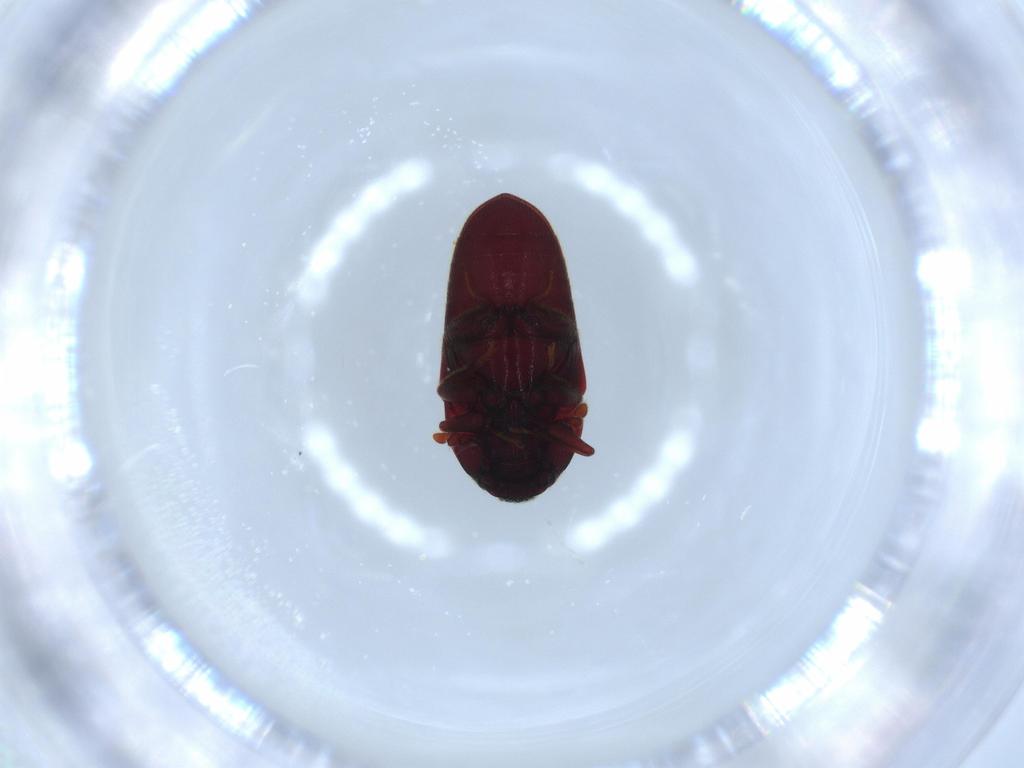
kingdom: Animalia
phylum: Arthropoda
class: Insecta
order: Coleoptera
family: Throscidae
